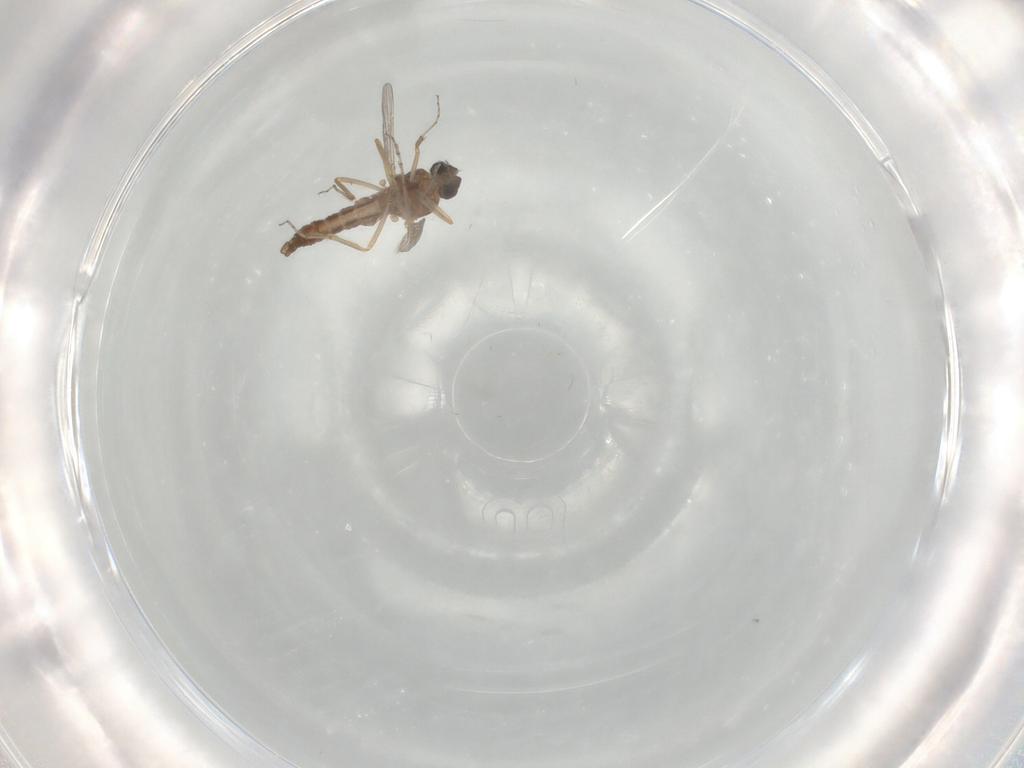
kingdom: Animalia
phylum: Arthropoda
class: Insecta
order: Diptera
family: Ceratopogonidae
